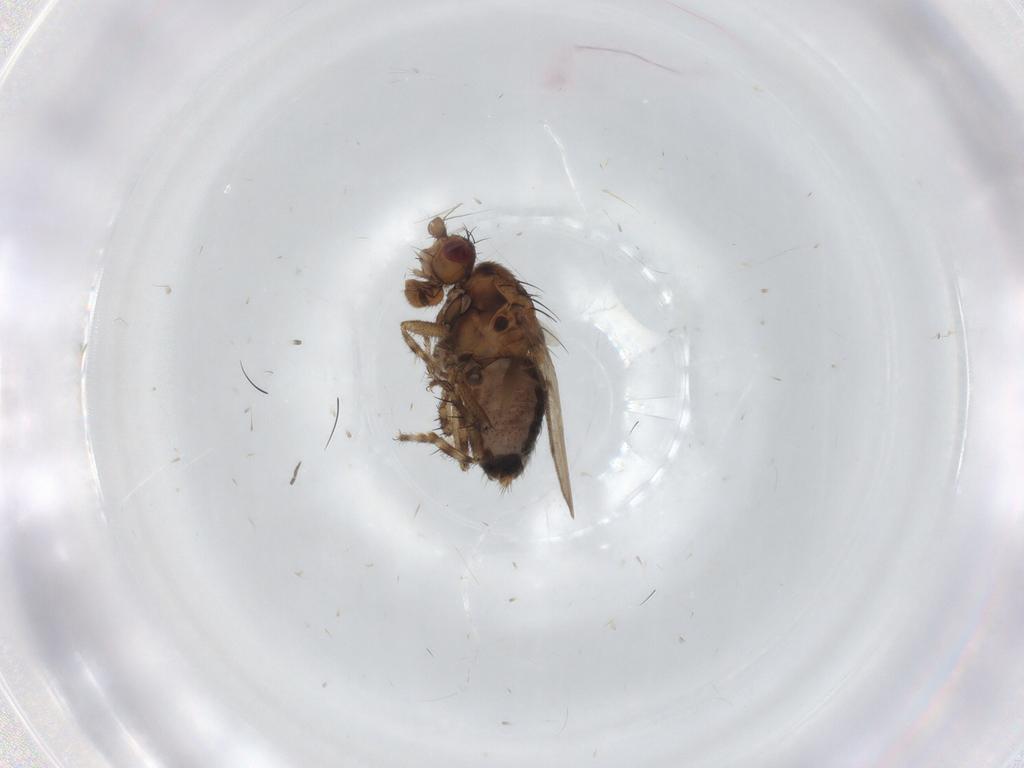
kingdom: Animalia
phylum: Arthropoda
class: Insecta
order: Diptera
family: Sphaeroceridae
